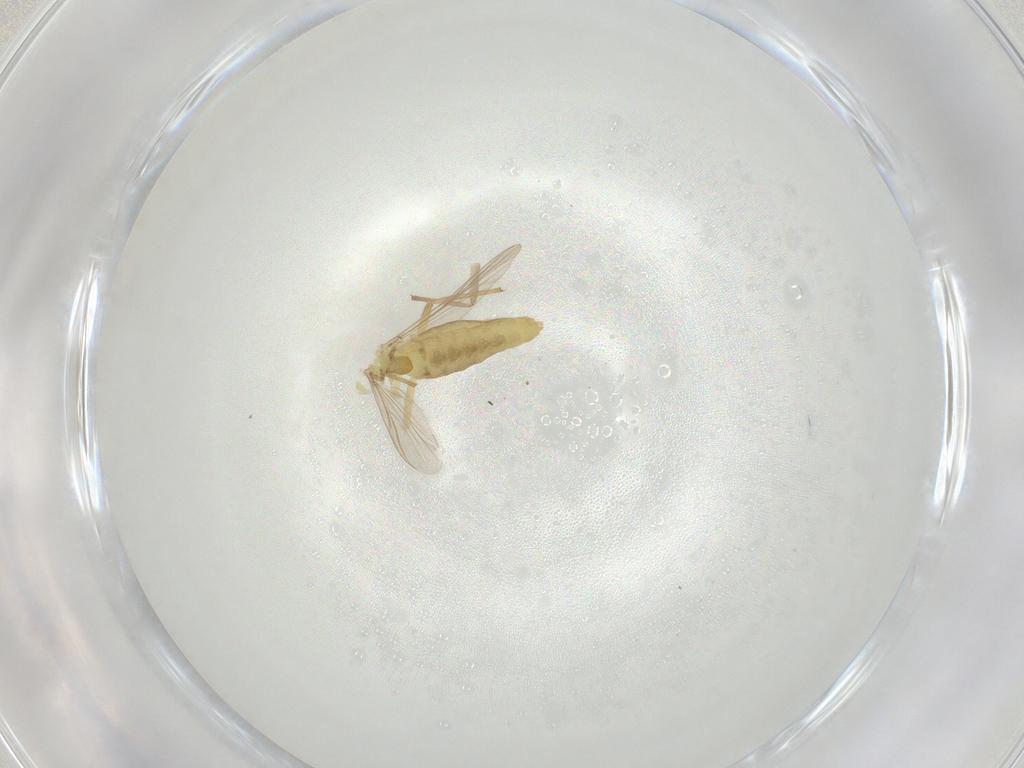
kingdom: Animalia
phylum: Arthropoda
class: Insecta
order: Diptera
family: Chironomidae
